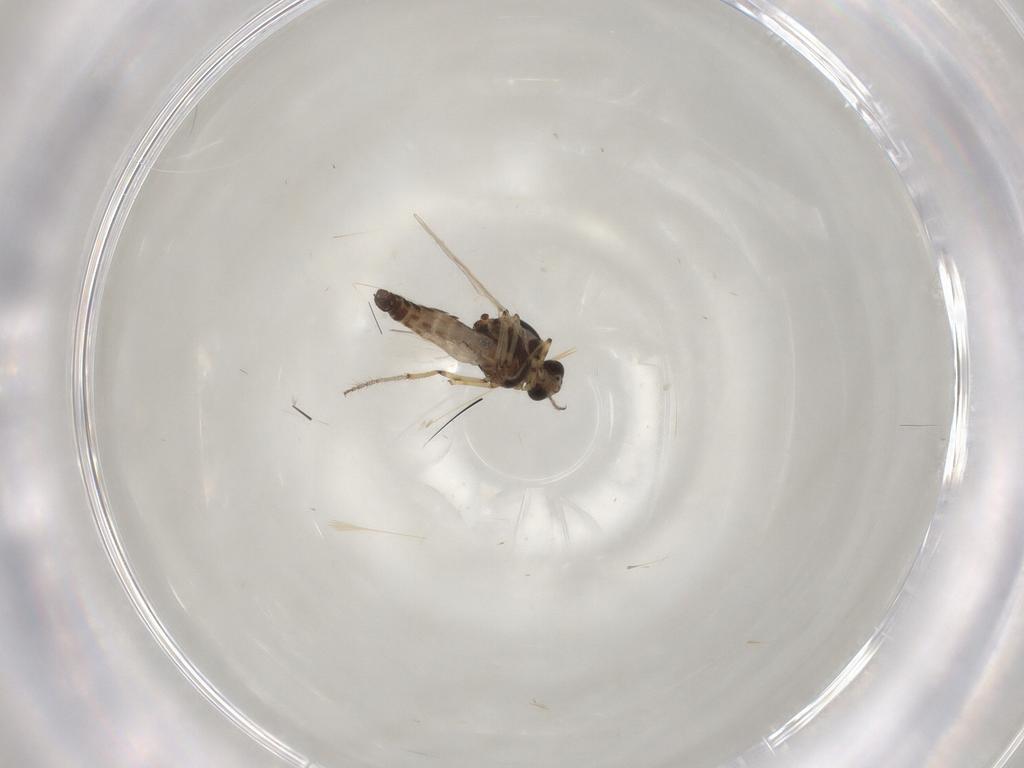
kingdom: Animalia
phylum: Arthropoda
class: Insecta
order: Diptera
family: Ceratopogonidae
